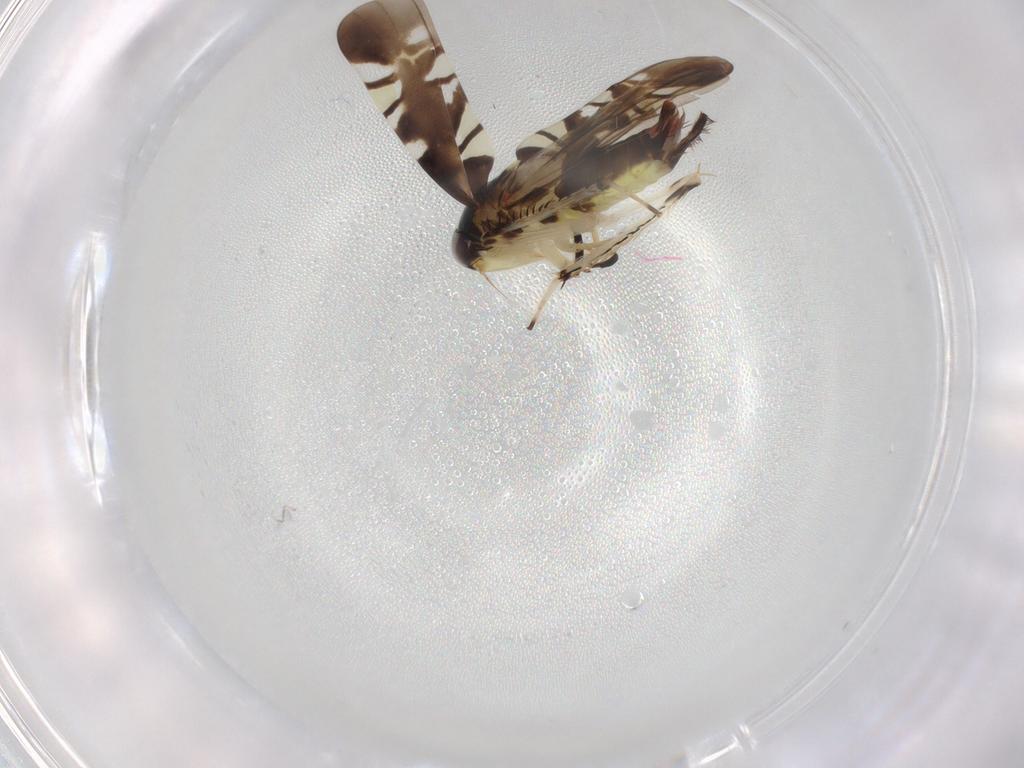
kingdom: Animalia
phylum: Arthropoda
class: Insecta
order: Hemiptera
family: Cicadellidae
